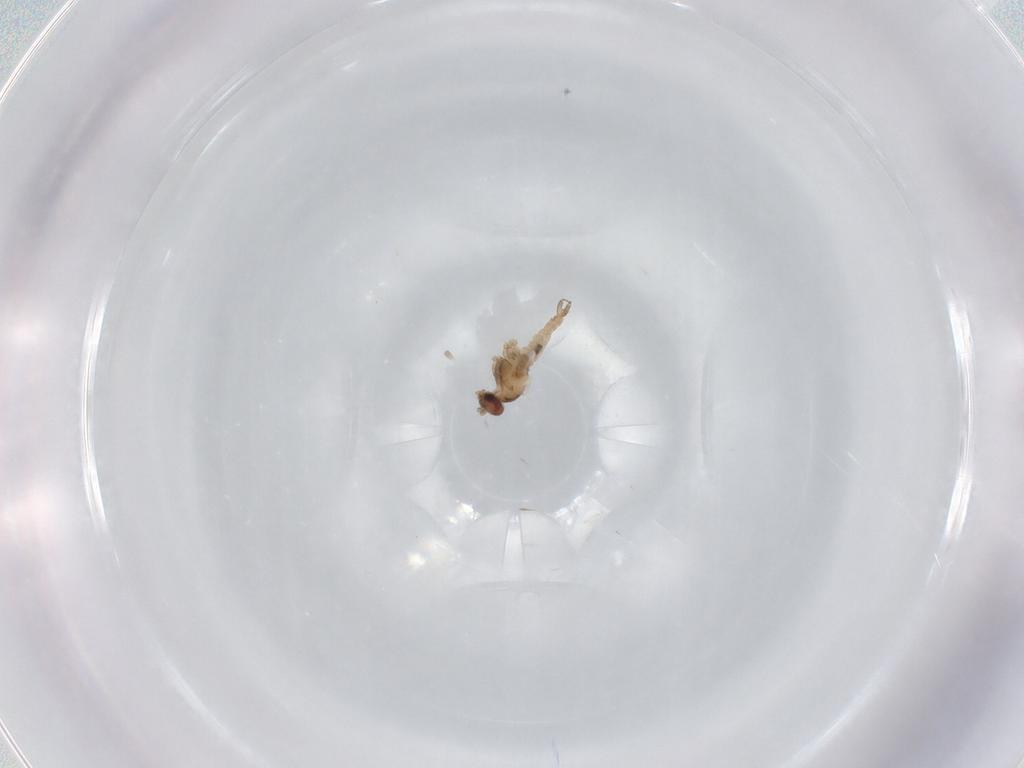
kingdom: Animalia
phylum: Arthropoda
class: Insecta
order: Diptera
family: Cecidomyiidae
